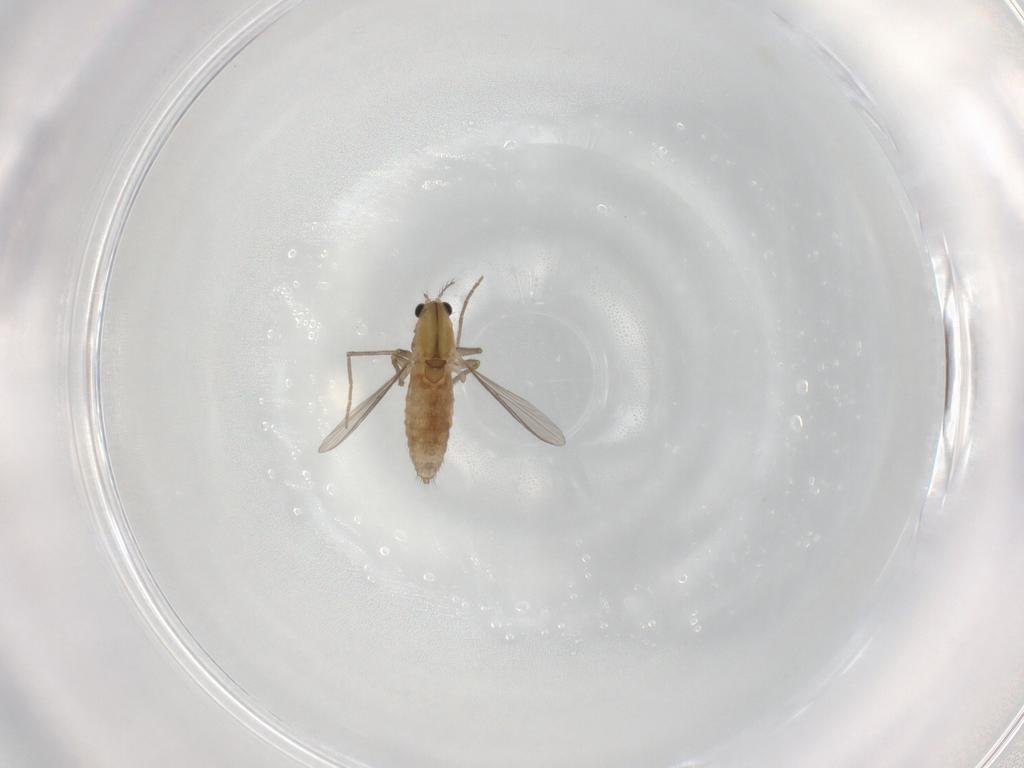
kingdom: Animalia
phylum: Arthropoda
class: Insecta
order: Diptera
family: Chironomidae
